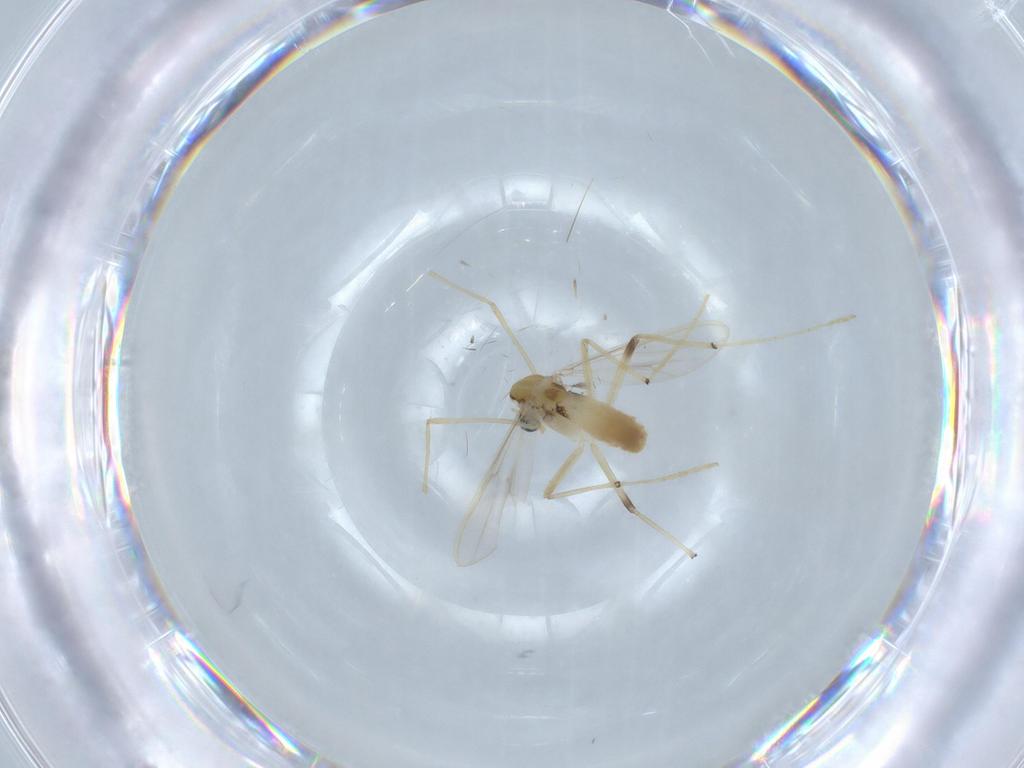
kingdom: Animalia
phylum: Arthropoda
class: Insecta
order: Diptera
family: Chironomidae
